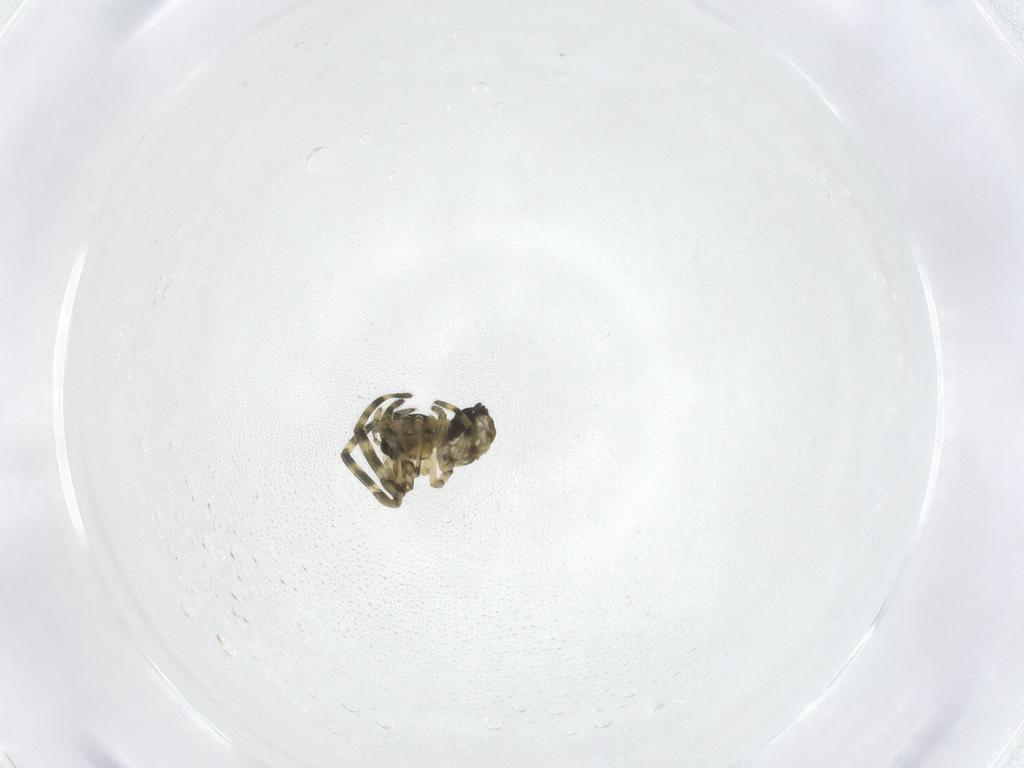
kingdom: Animalia
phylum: Arthropoda
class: Arachnida
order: Araneae
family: Tetragnathidae
